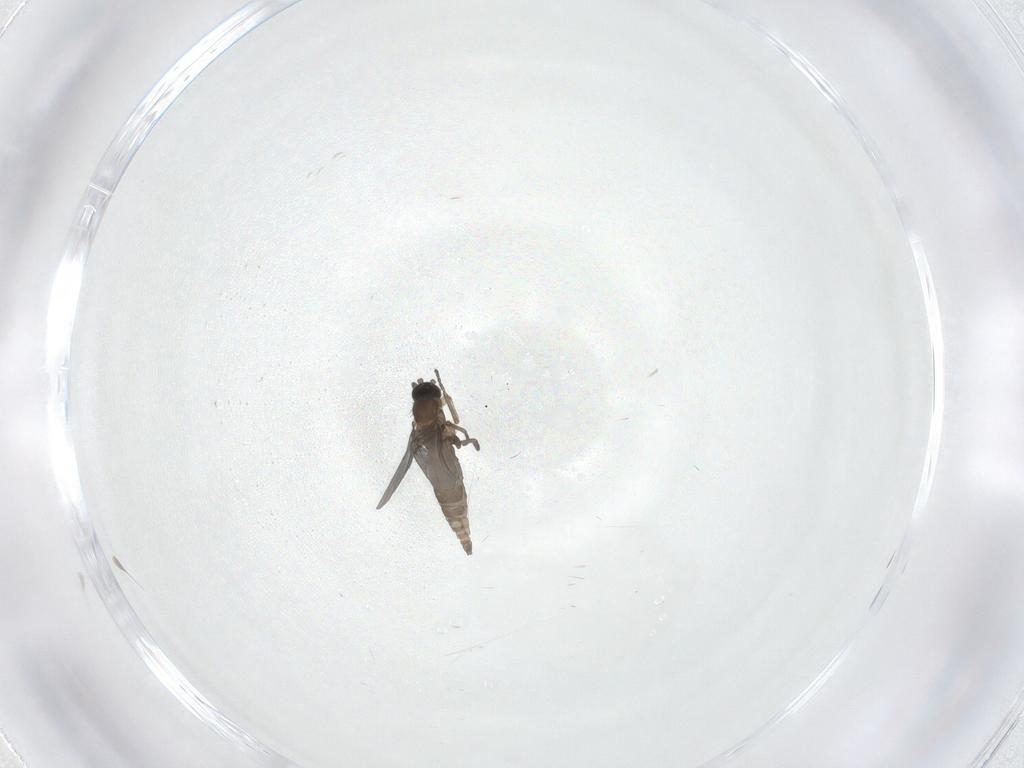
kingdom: Animalia
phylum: Arthropoda
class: Insecta
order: Diptera
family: Cecidomyiidae
